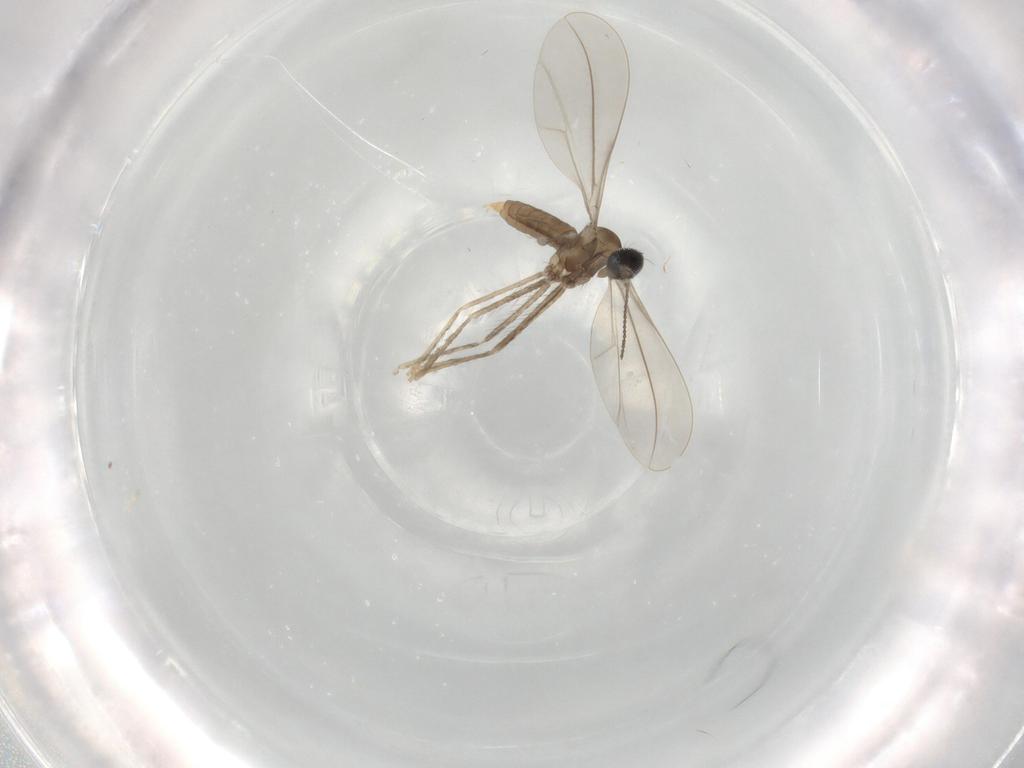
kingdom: Animalia
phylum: Arthropoda
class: Insecta
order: Diptera
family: Cecidomyiidae
